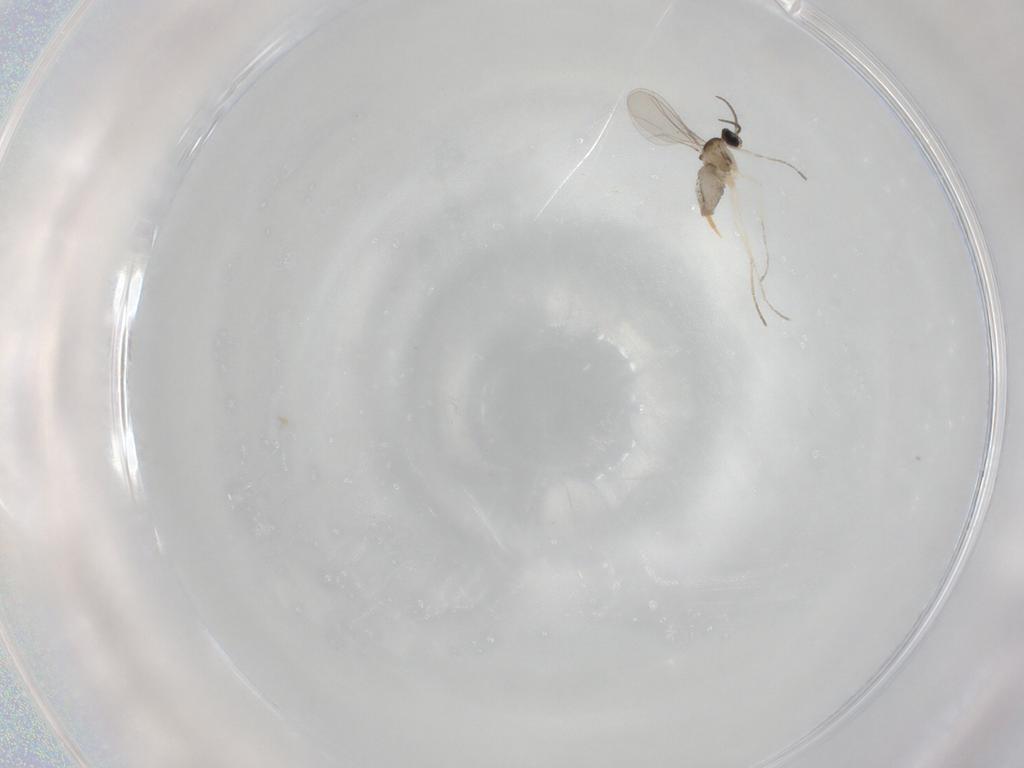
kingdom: Animalia
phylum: Arthropoda
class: Insecta
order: Diptera
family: Cecidomyiidae
